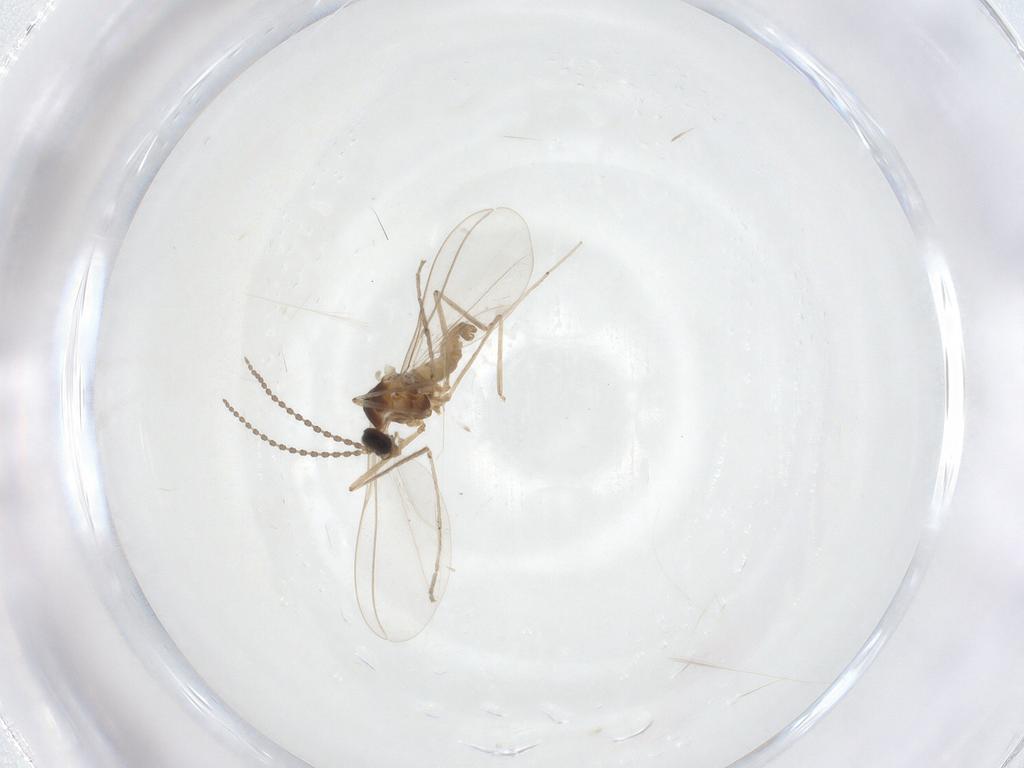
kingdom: Animalia
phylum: Arthropoda
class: Insecta
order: Diptera
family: Cecidomyiidae
